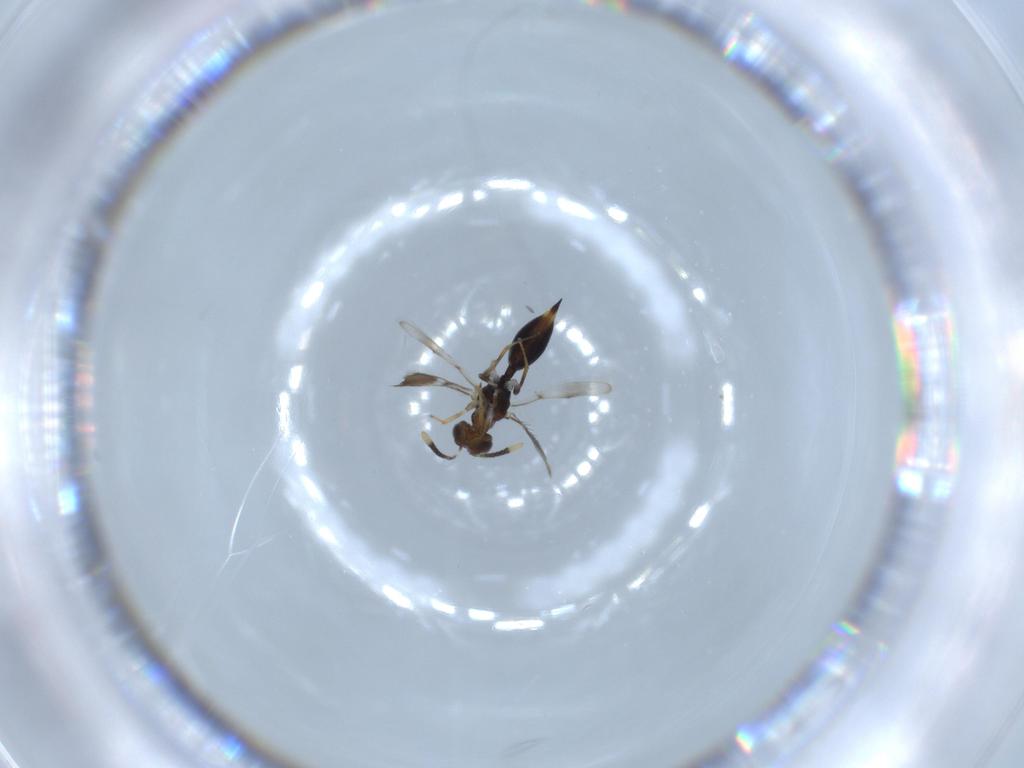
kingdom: Animalia
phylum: Arthropoda
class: Insecta
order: Hymenoptera
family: Diparidae
